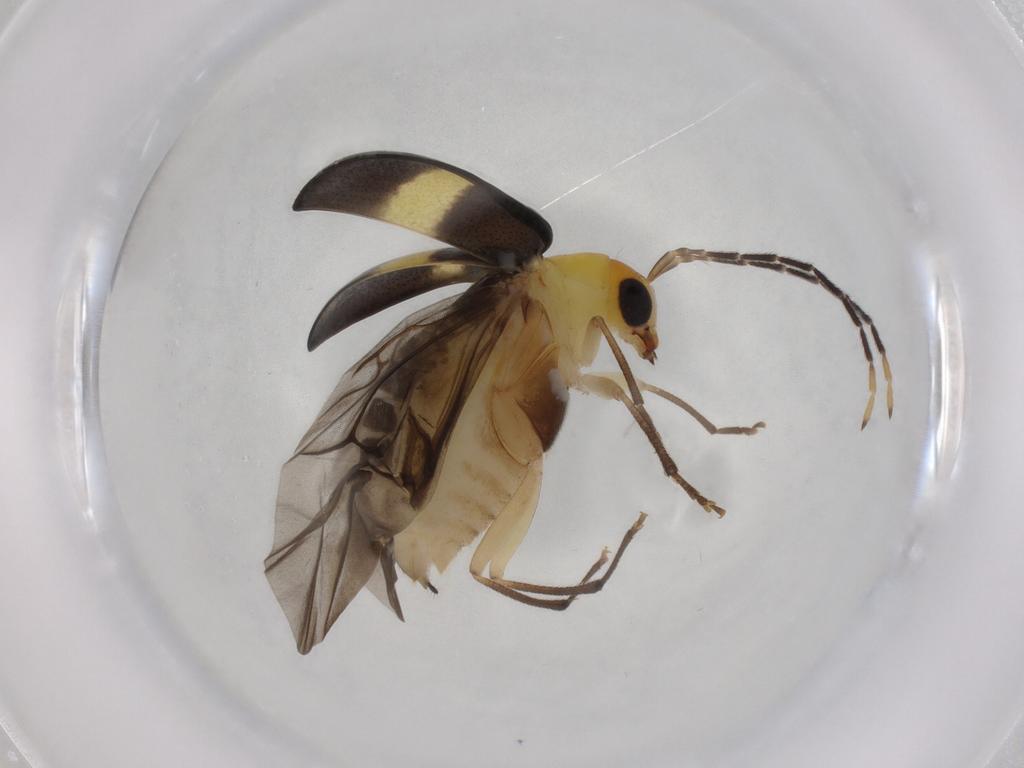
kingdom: Animalia
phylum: Arthropoda
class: Insecta
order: Coleoptera
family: Chrysomelidae
